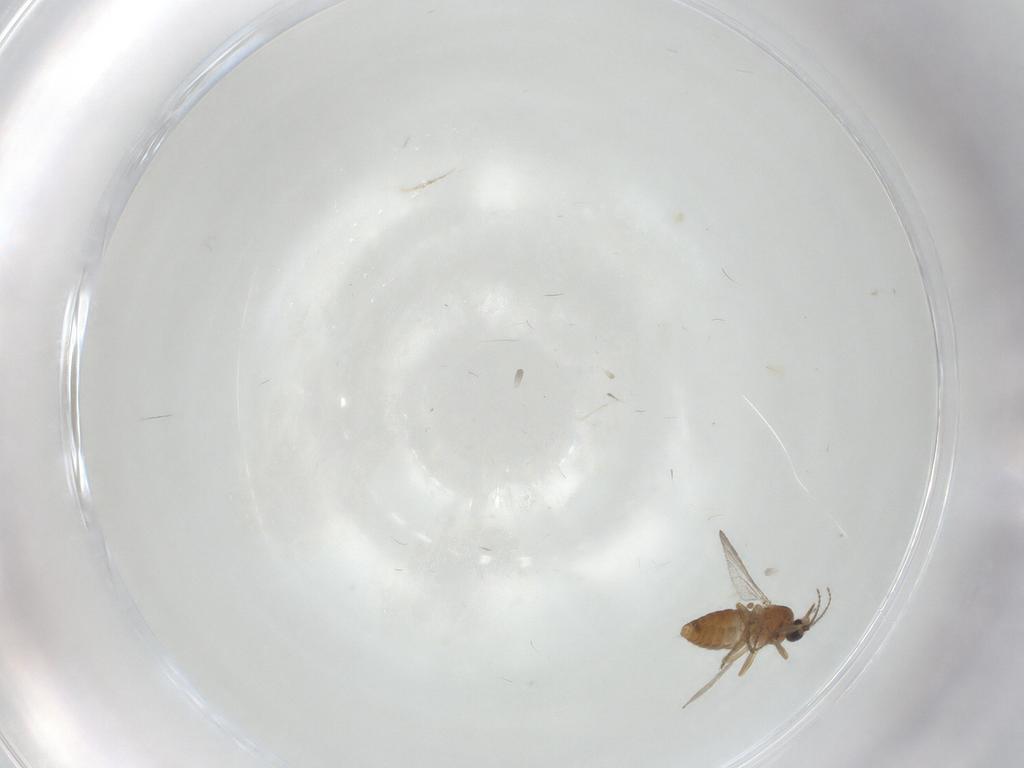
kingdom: Animalia
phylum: Arthropoda
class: Insecta
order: Diptera
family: Ceratopogonidae
